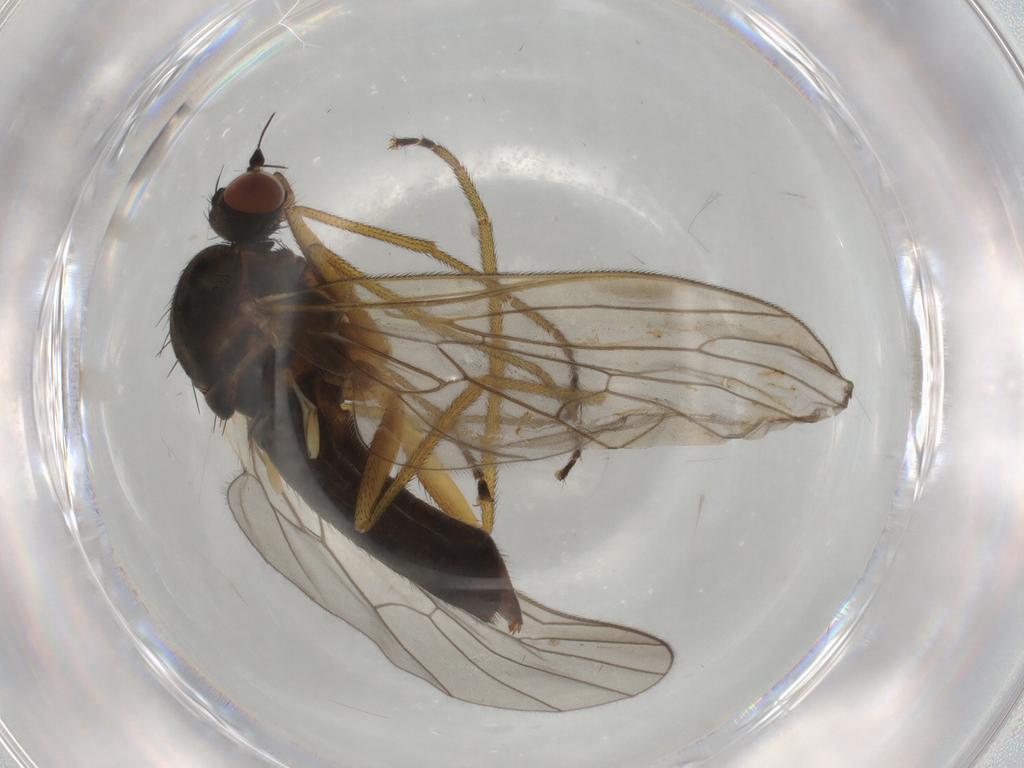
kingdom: Animalia
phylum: Arthropoda
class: Insecta
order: Diptera
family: Brachystomatidae
